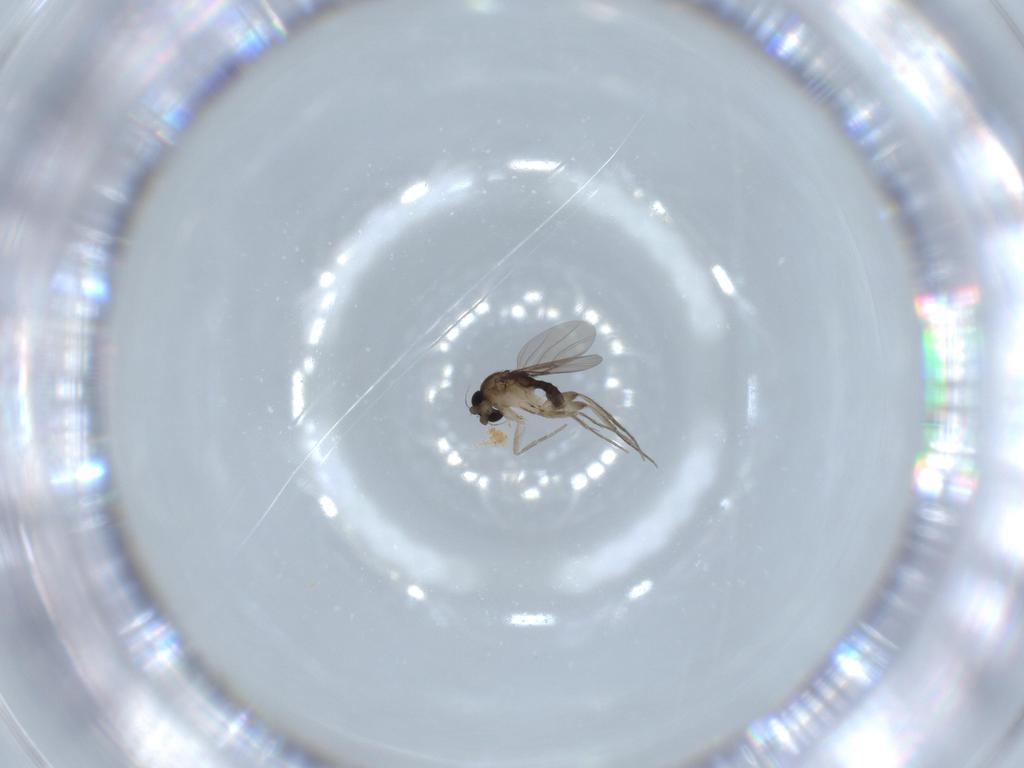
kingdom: Animalia
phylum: Arthropoda
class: Insecta
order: Diptera
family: Phoridae
